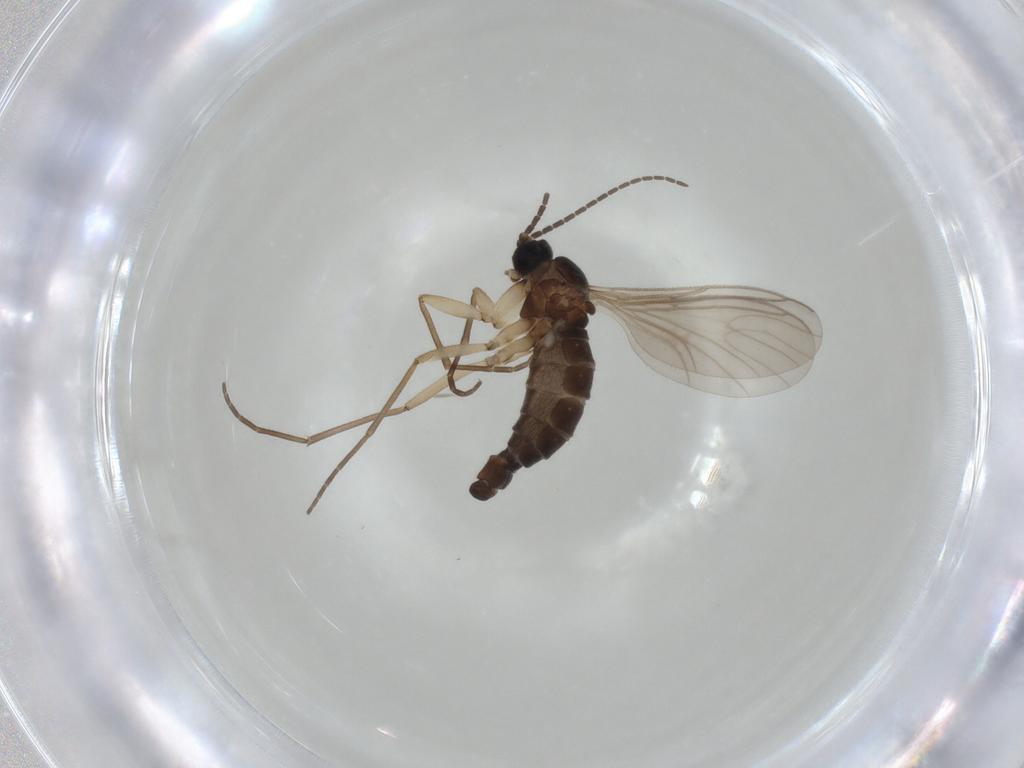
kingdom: Animalia
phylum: Arthropoda
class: Insecta
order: Diptera
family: Sciaridae
